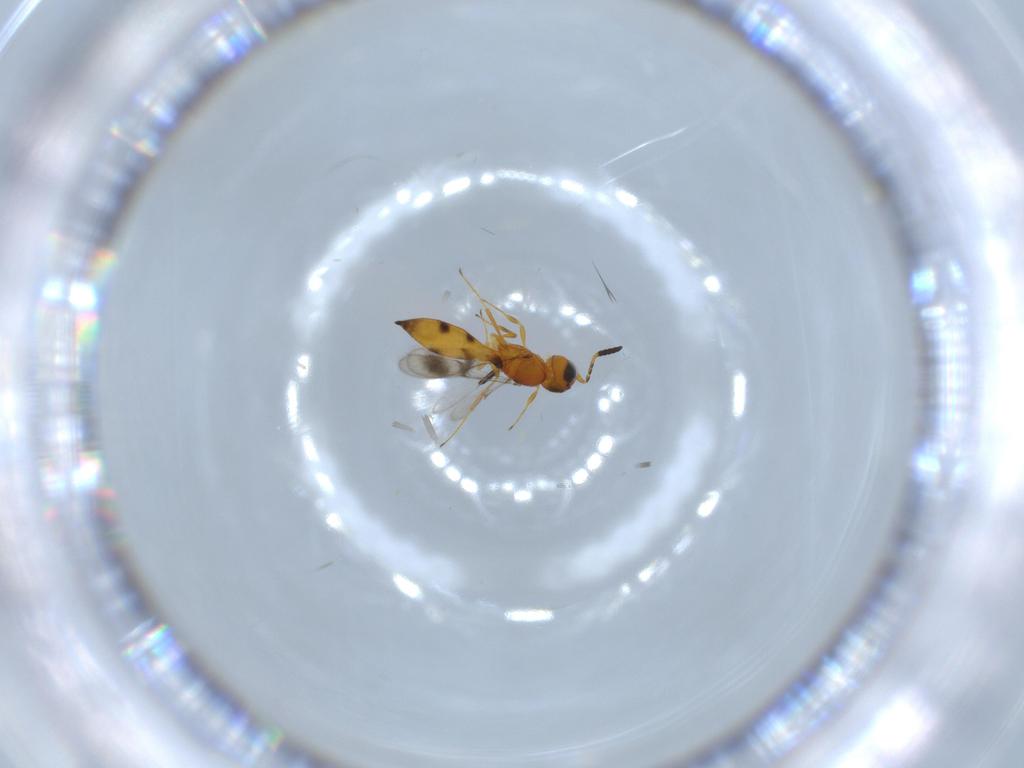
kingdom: Animalia
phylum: Arthropoda
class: Insecta
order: Hymenoptera
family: Scelionidae
